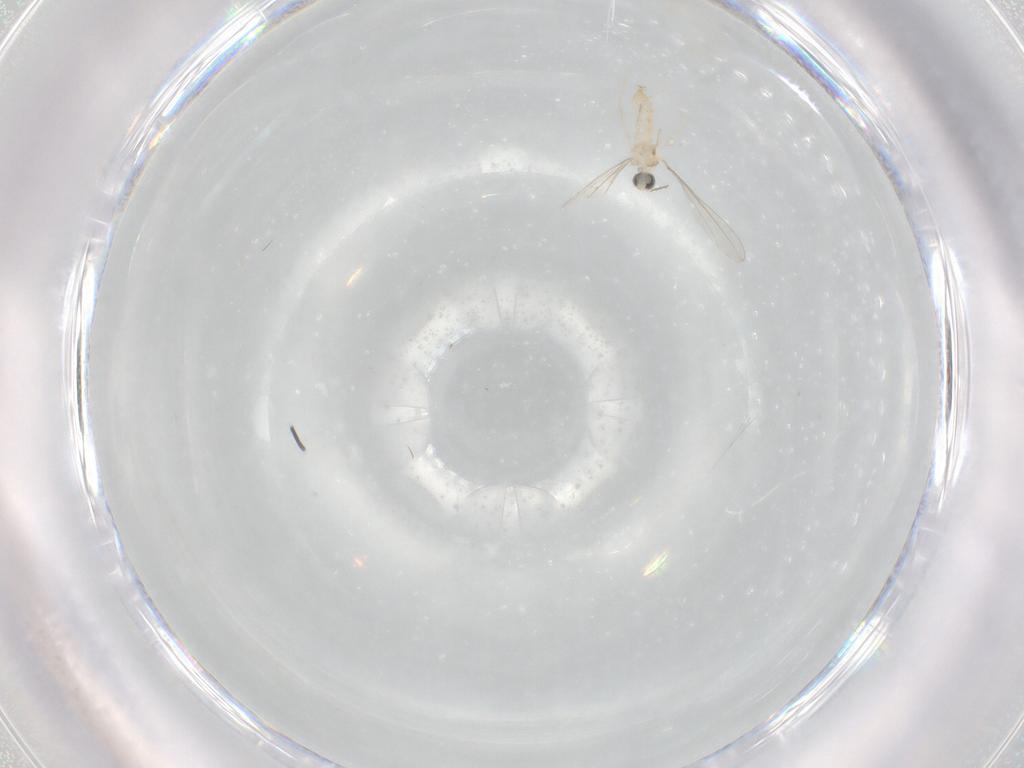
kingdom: Animalia
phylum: Arthropoda
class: Insecta
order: Diptera
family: Cecidomyiidae
